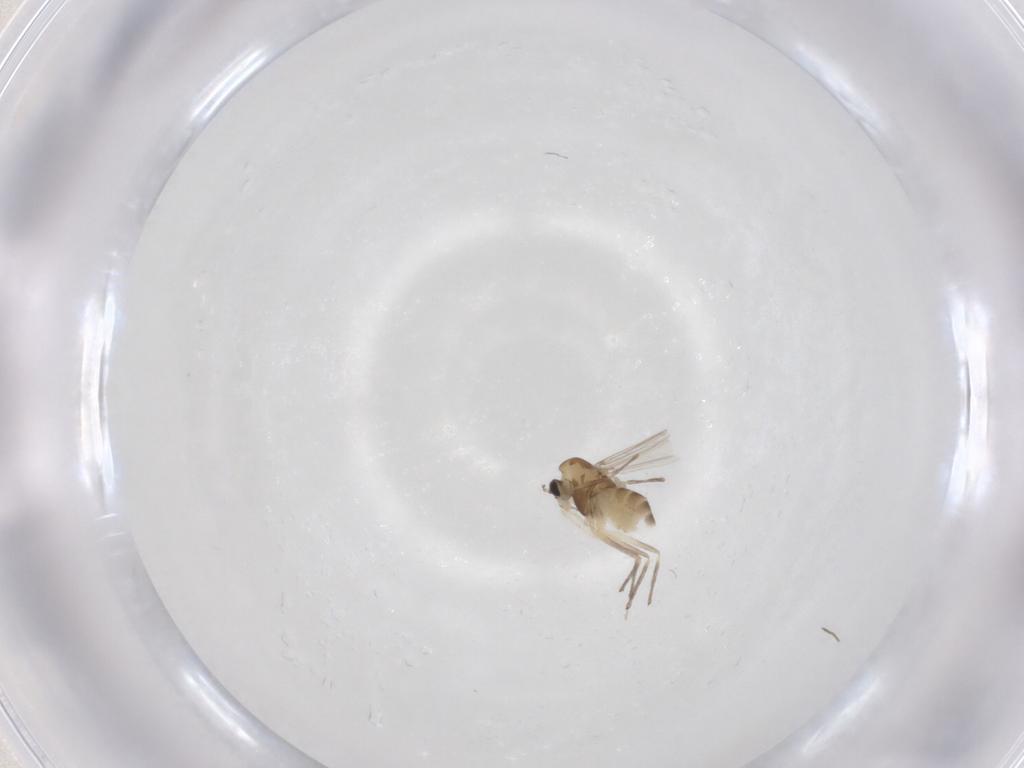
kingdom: Animalia
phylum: Arthropoda
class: Insecta
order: Diptera
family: Chironomidae
